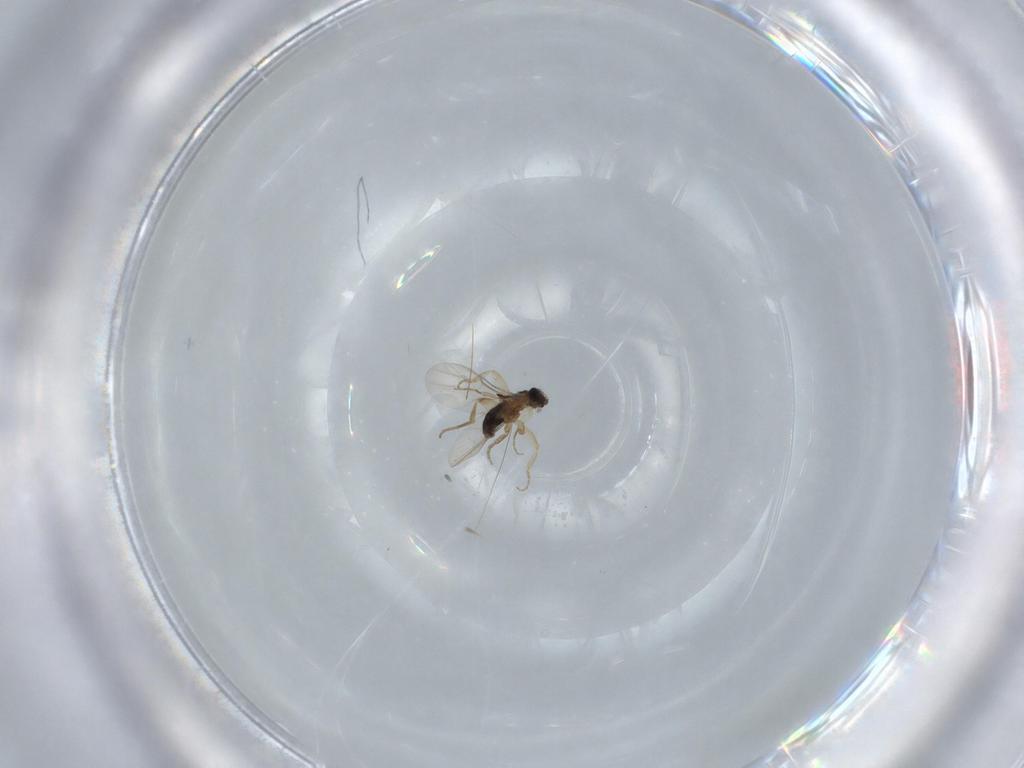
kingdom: Animalia
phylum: Arthropoda
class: Insecta
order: Diptera
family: Phoridae
